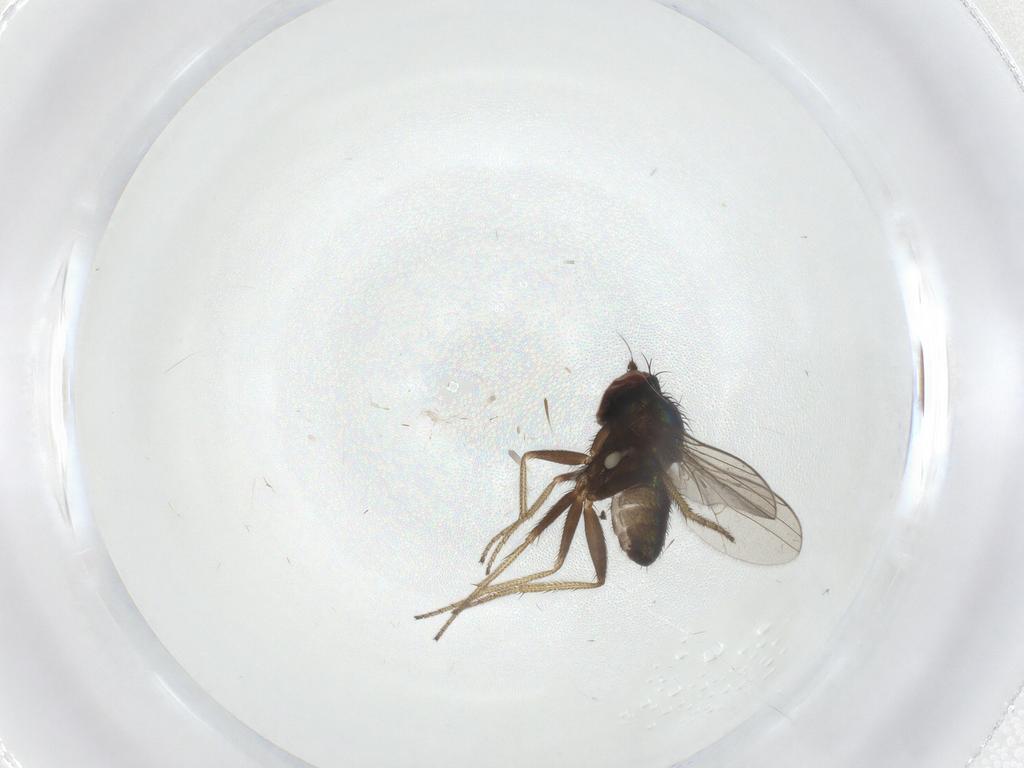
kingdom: Animalia
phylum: Arthropoda
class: Insecta
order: Diptera
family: Dolichopodidae
